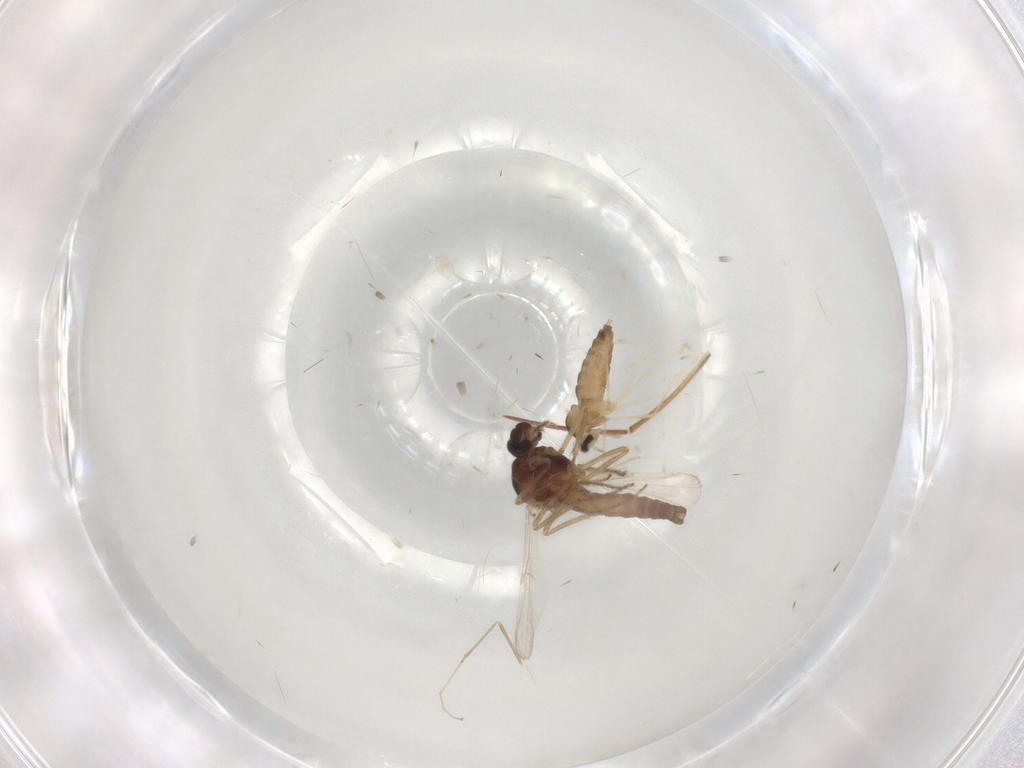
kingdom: Animalia
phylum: Arthropoda
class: Insecta
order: Diptera
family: Cecidomyiidae
